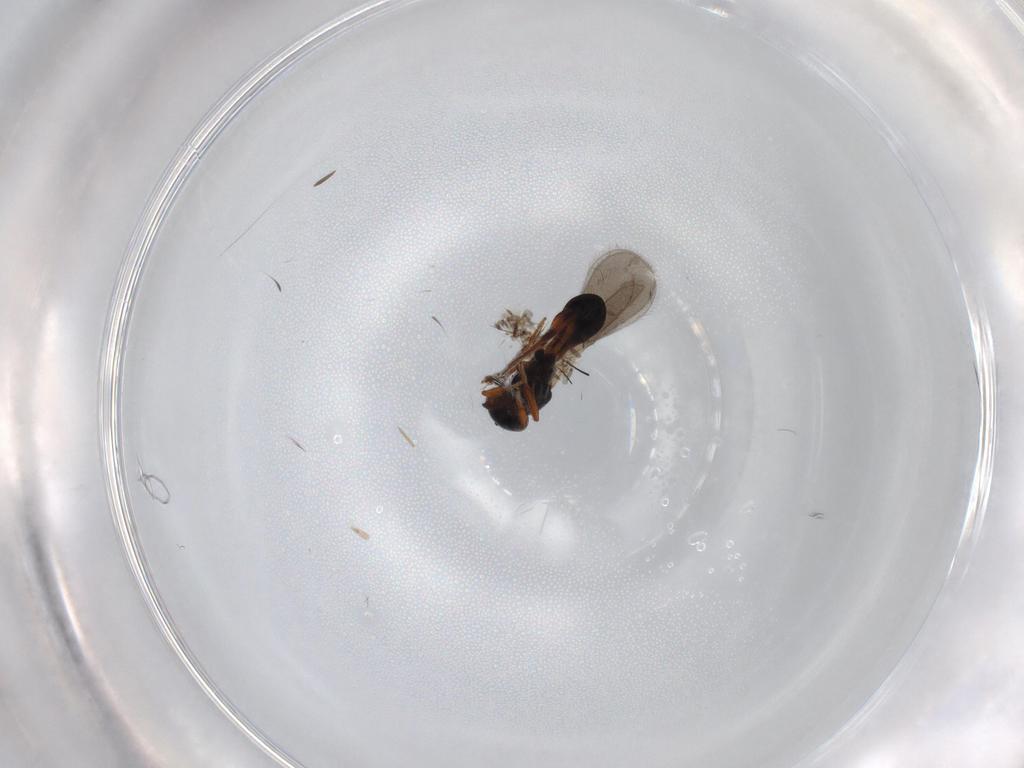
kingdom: Animalia
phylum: Arthropoda
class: Insecta
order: Hymenoptera
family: Platygastridae
